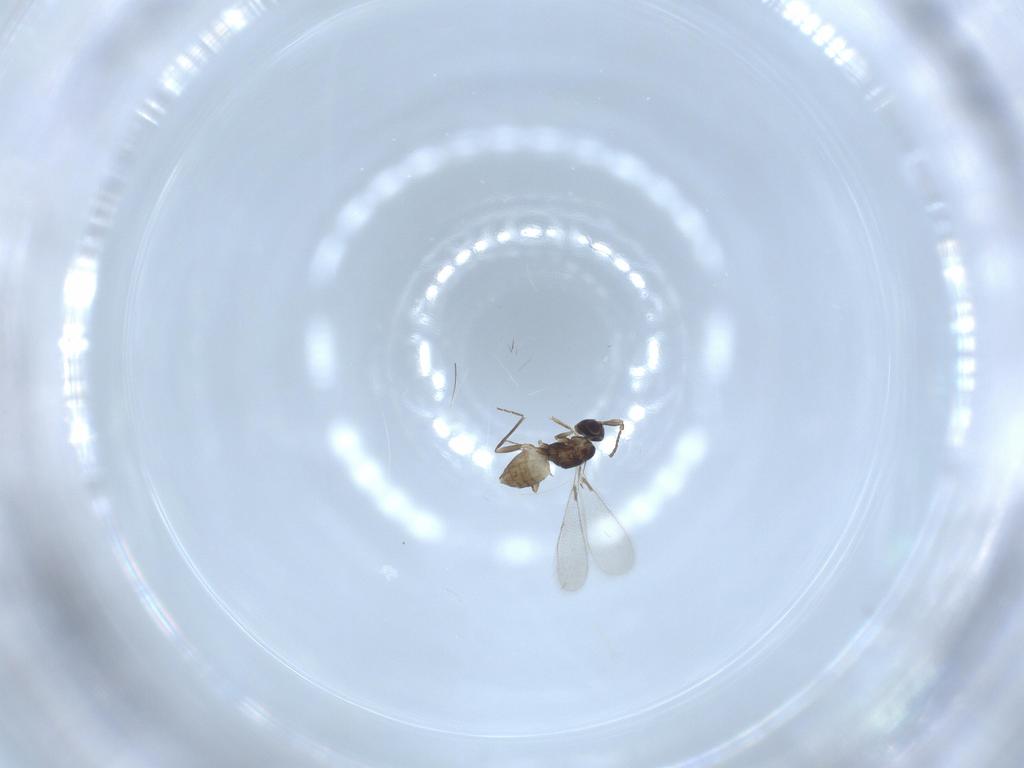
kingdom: Animalia
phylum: Arthropoda
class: Insecta
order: Hymenoptera
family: Mymaridae
